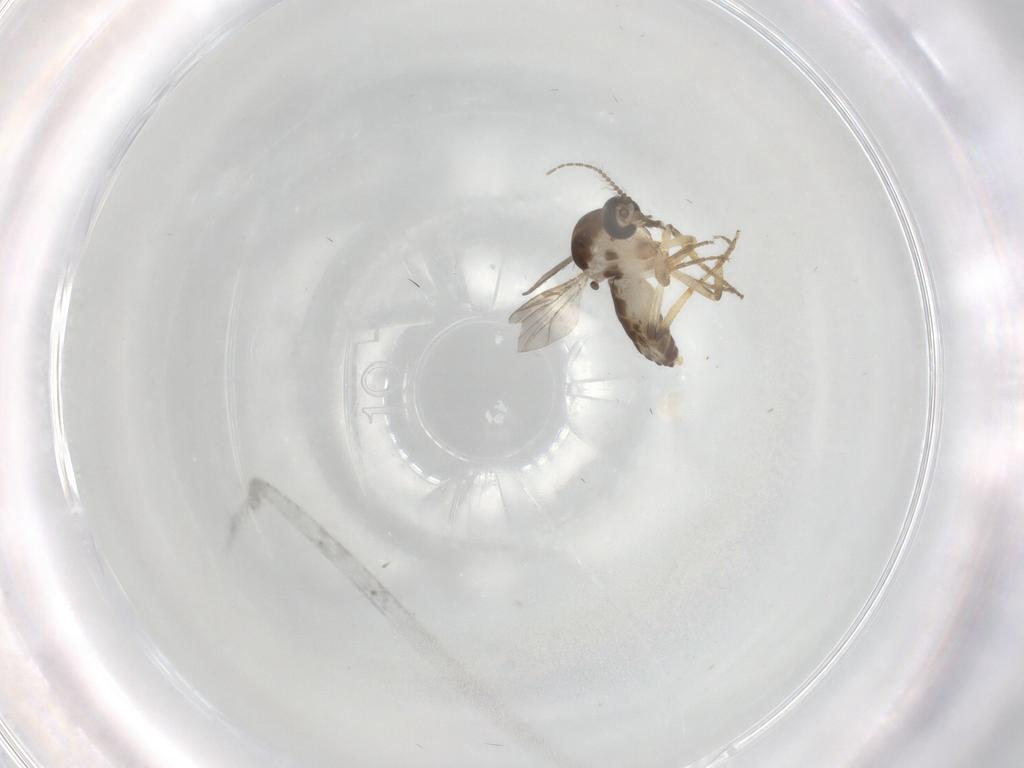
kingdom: Animalia
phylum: Arthropoda
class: Insecta
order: Diptera
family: Ceratopogonidae
